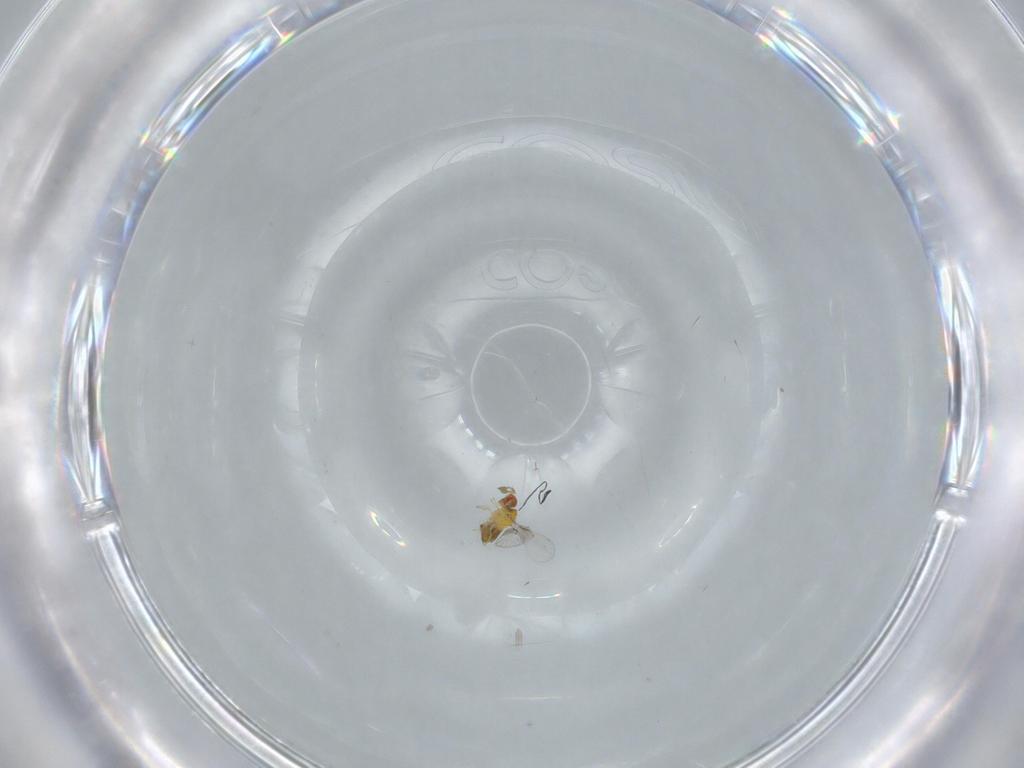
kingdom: Animalia
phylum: Arthropoda
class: Insecta
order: Hymenoptera
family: Trichogrammatidae
